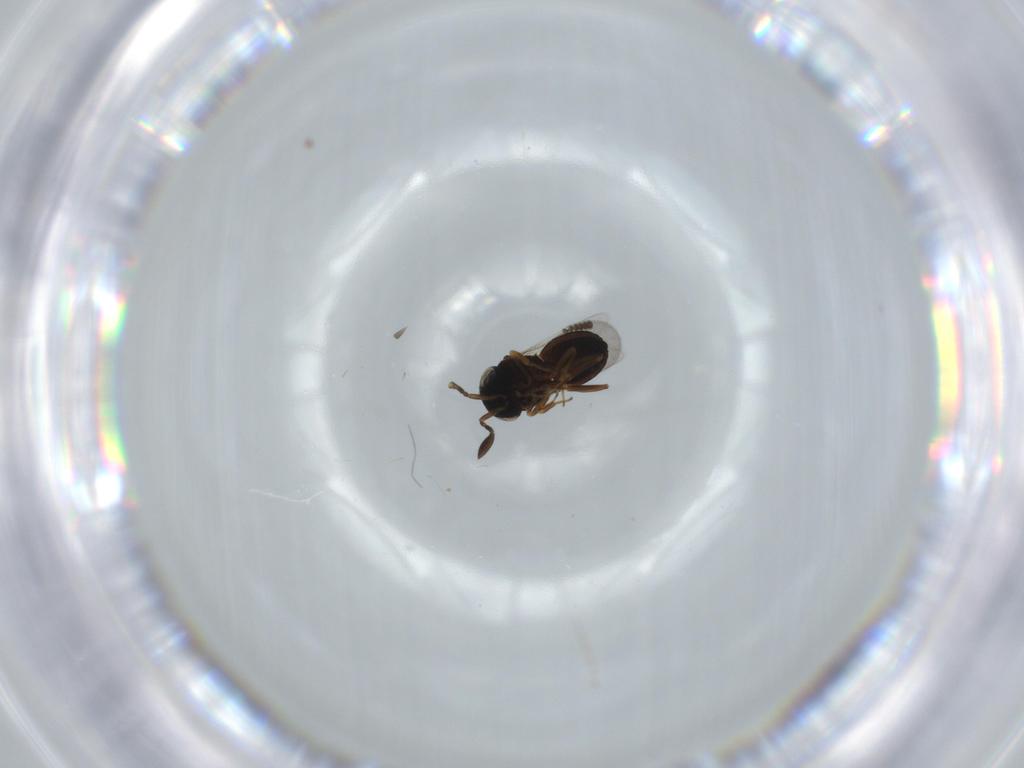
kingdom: Animalia
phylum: Arthropoda
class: Insecta
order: Coleoptera
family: Curculionidae
